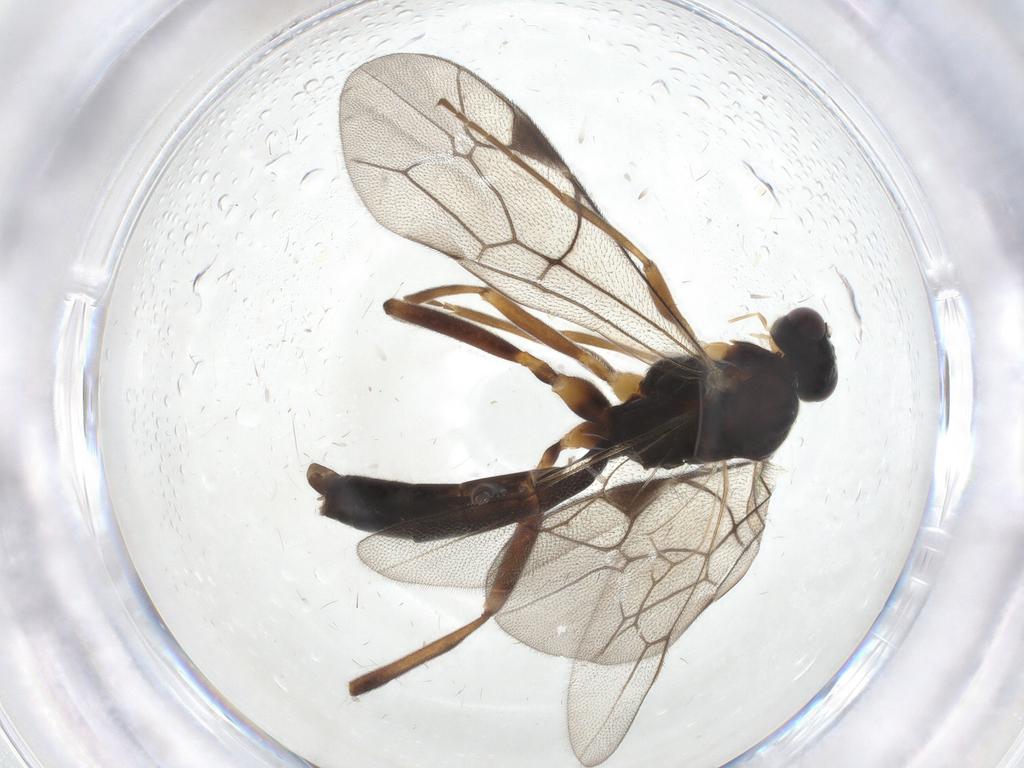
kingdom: Animalia
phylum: Arthropoda
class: Insecta
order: Hymenoptera
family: Ichneumonidae
